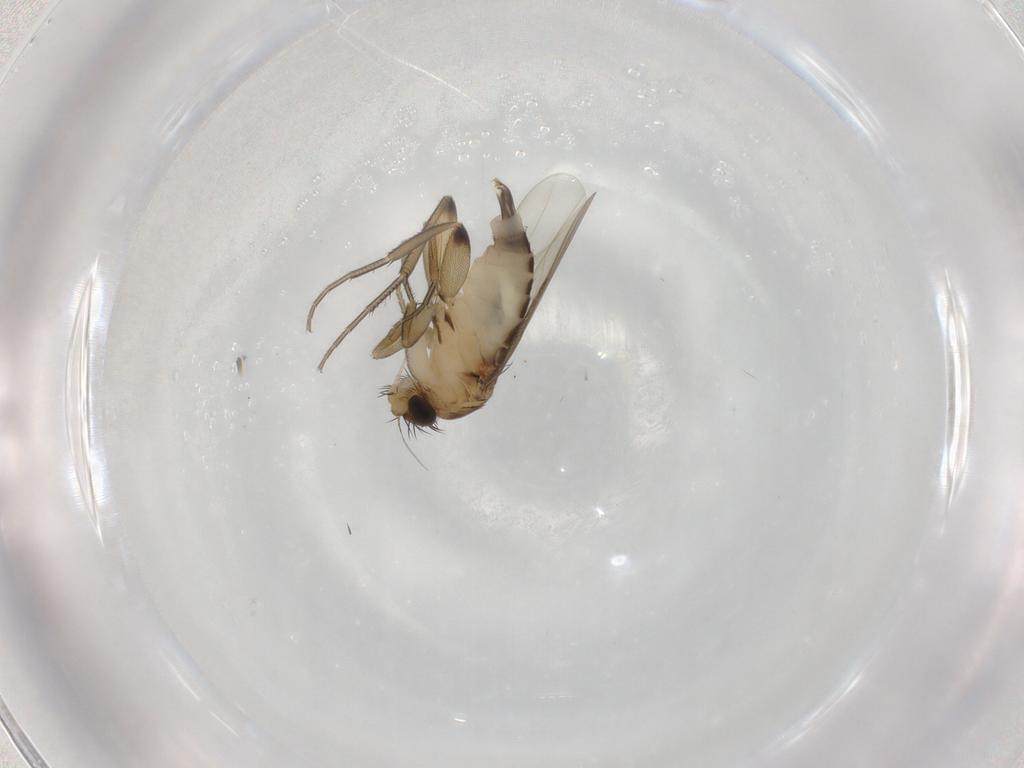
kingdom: Animalia
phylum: Arthropoda
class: Insecta
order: Diptera
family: Phoridae
